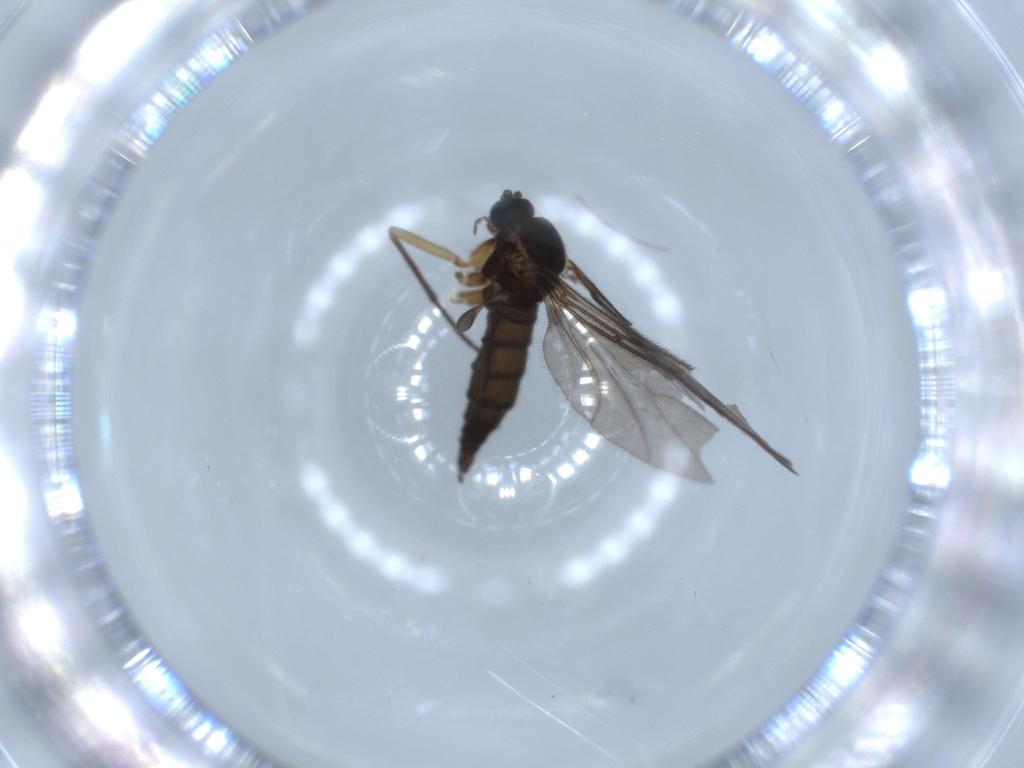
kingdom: Animalia
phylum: Arthropoda
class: Insecta
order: Diptera
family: Sciaridae
